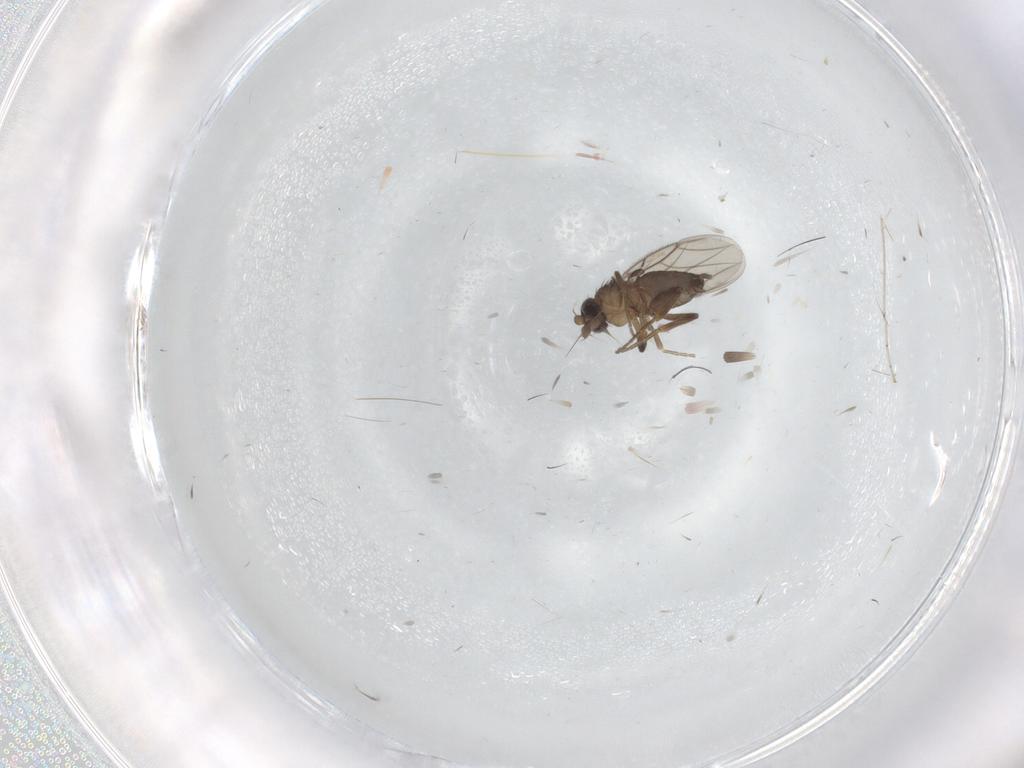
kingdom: Animalia
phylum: Arthropoda
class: Insecta
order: Diptera
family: Phoridae
